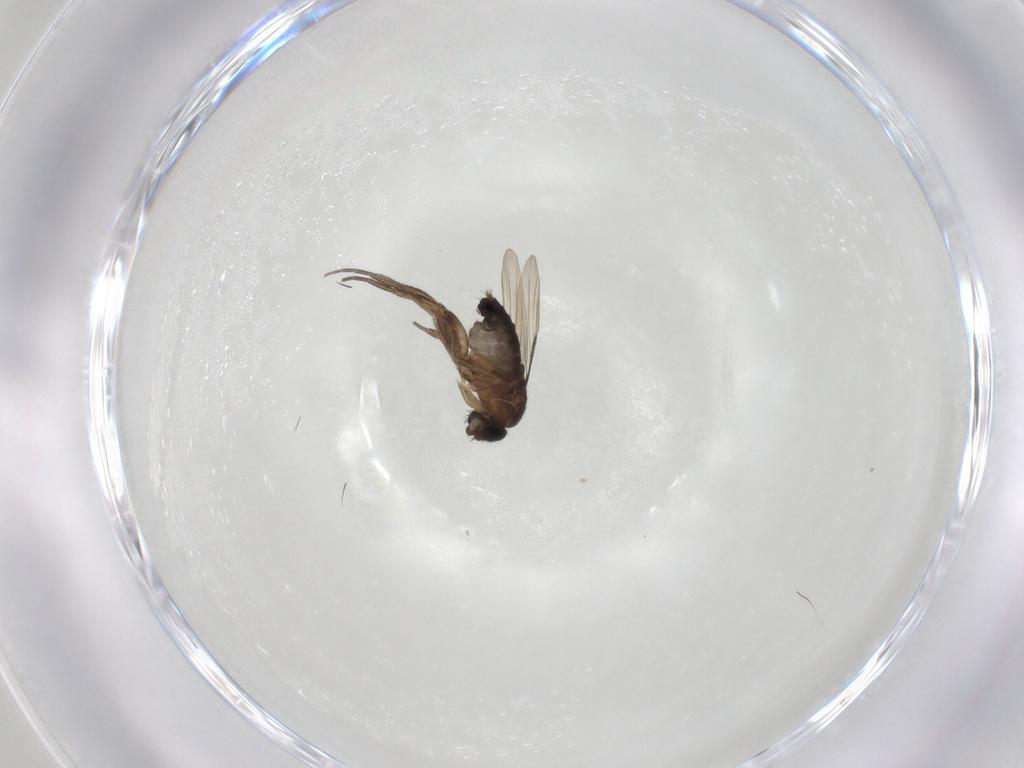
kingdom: Animalia
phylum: Arthropoda
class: Insecta
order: Diptera
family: Phoridae
